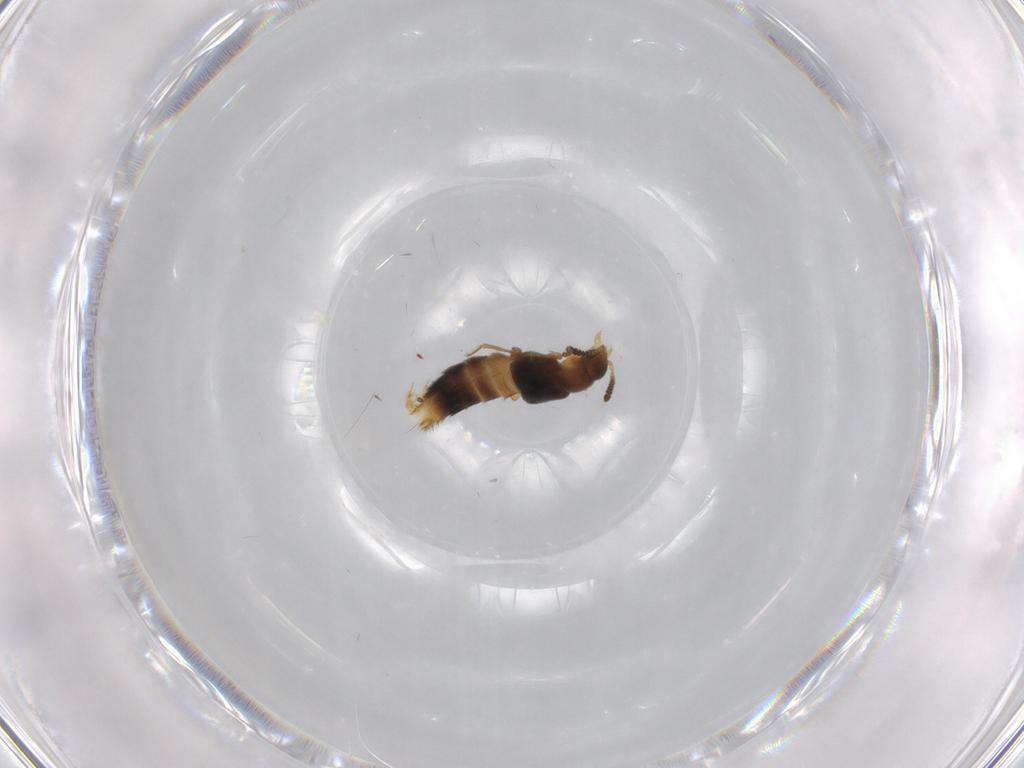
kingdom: Animalia
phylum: Arthropoda
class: Insecta
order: Coleoptera
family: Staphylinidae
